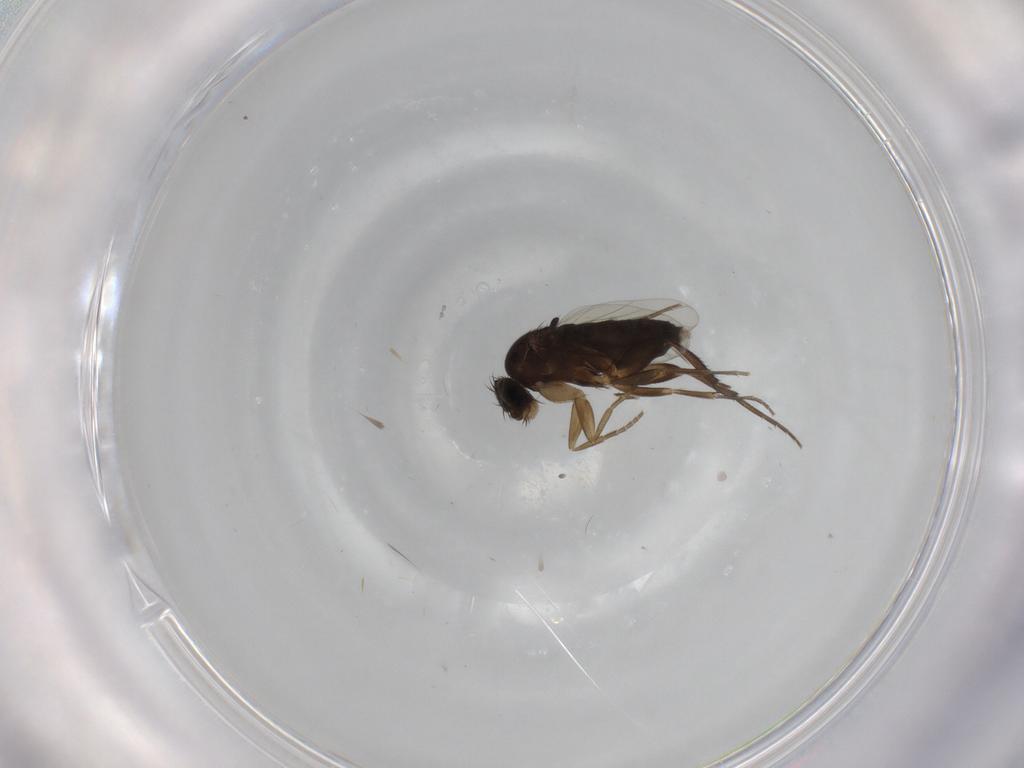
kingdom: Animalia
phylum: Arthropoda
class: Insecta
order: Diptera
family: Phoridae
